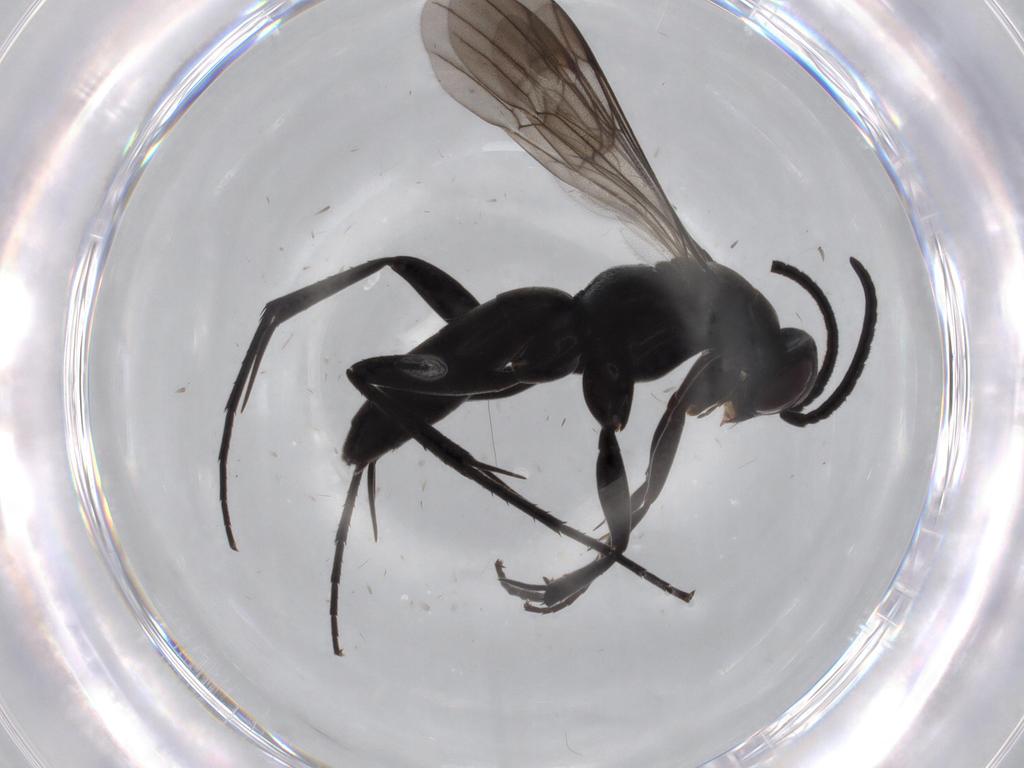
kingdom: Animalia
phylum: Arthropoda
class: Insecta
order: Hymenoptera
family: Pompilidae
